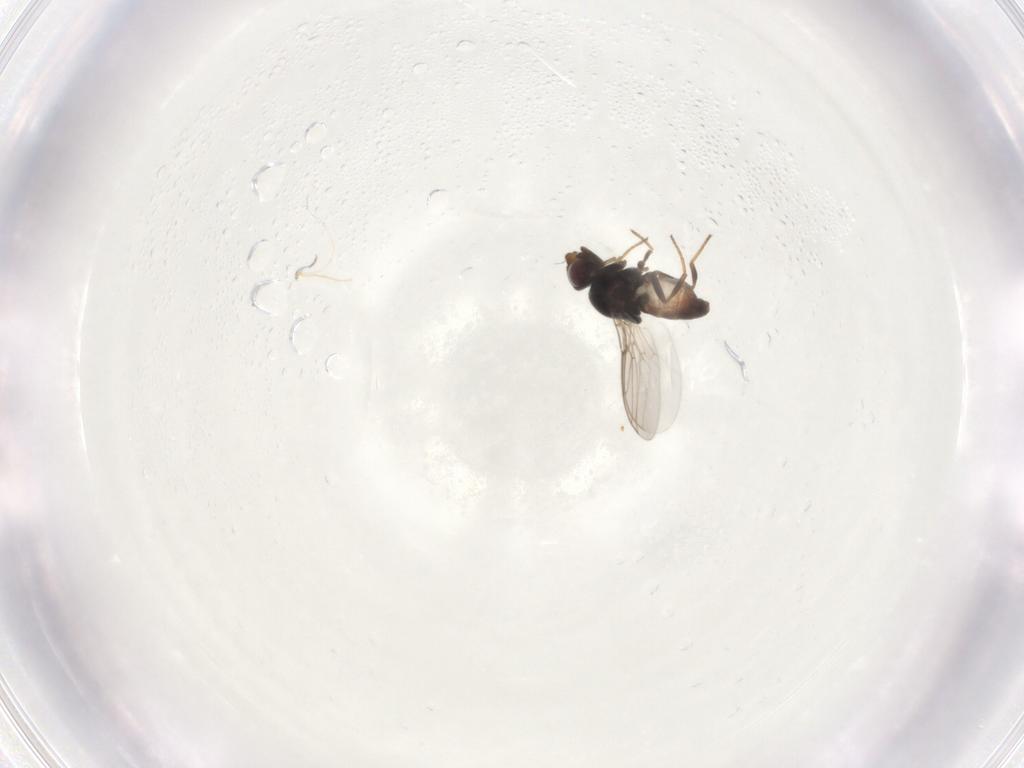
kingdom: Animalia
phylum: Arthropoda
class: Insecta
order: Diptera
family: Chloropidae
